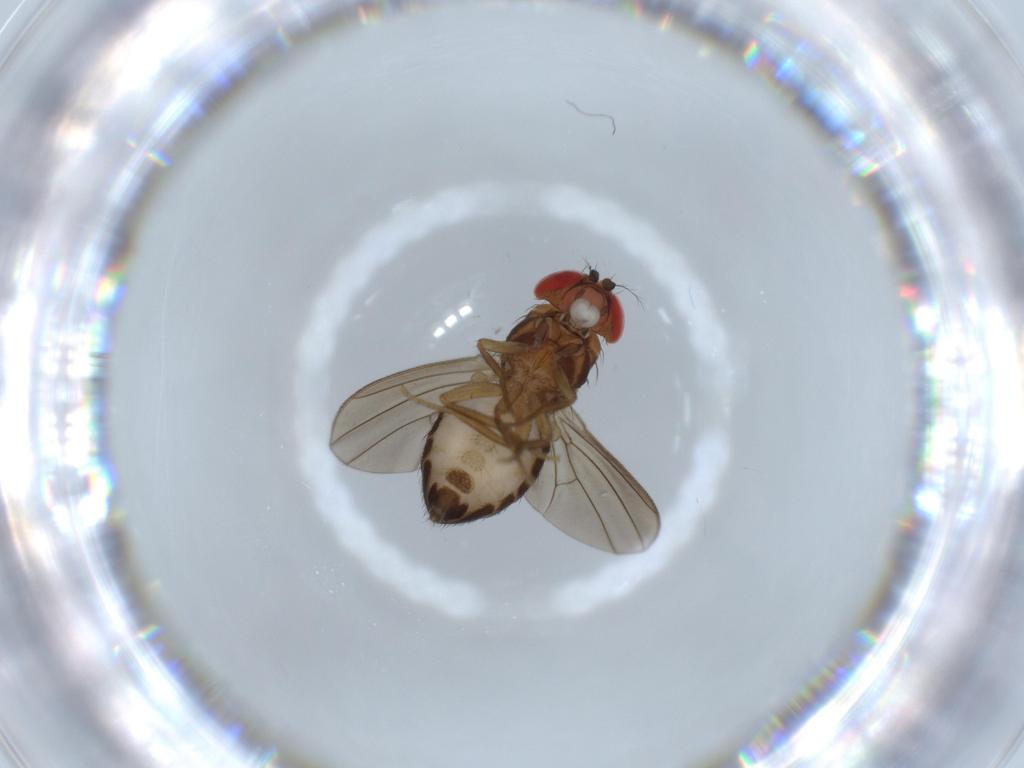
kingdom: Animalia
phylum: Arthropoda
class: Insecta
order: Diptera
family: Drosophilidae
